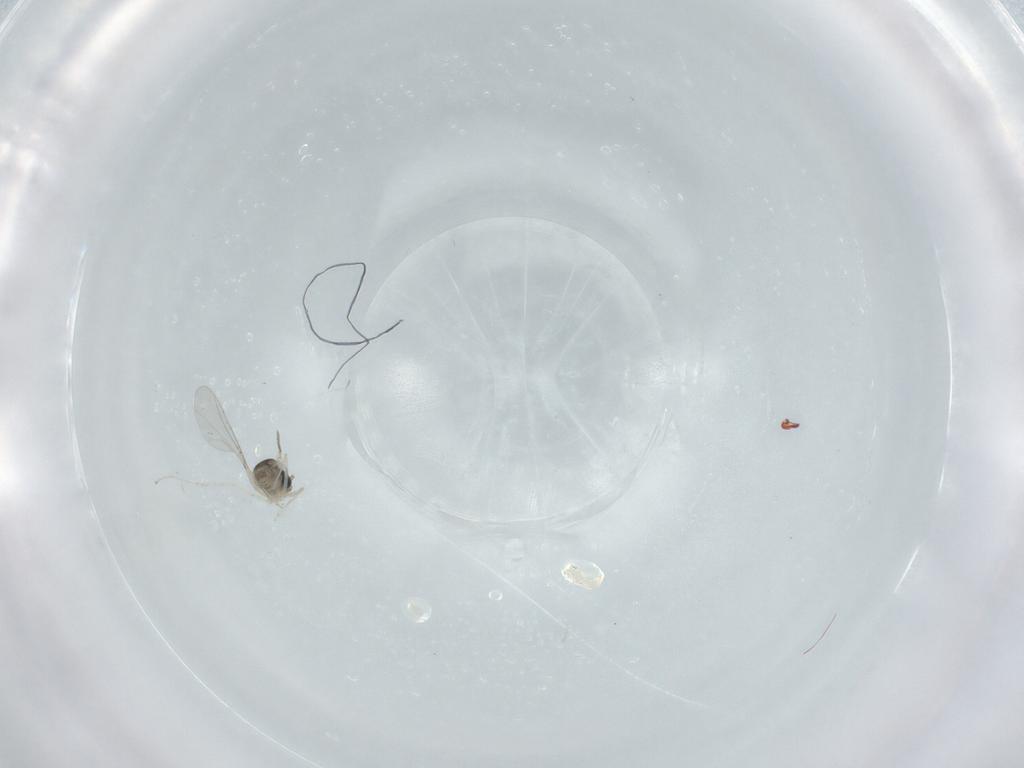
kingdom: Animalia
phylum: Arthropoda
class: Insecta
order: Diptera
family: Cecidomyiidae
